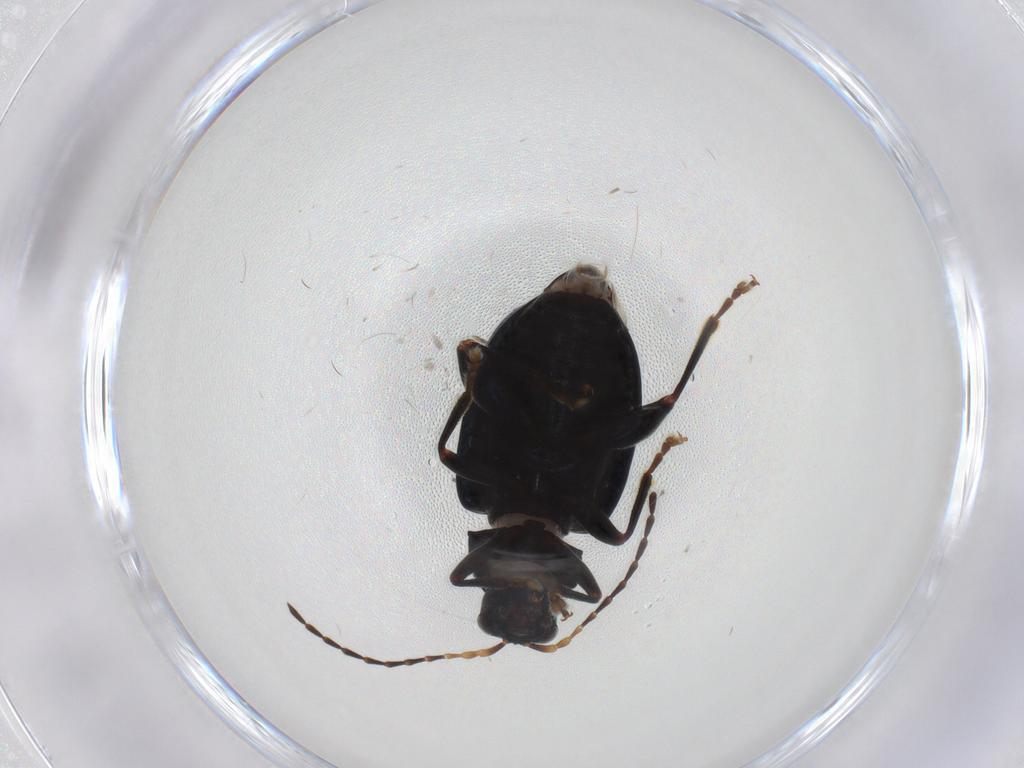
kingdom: Animalia
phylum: Arthropoda
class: Insecta
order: Coleoptera
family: Chrysomelidae
